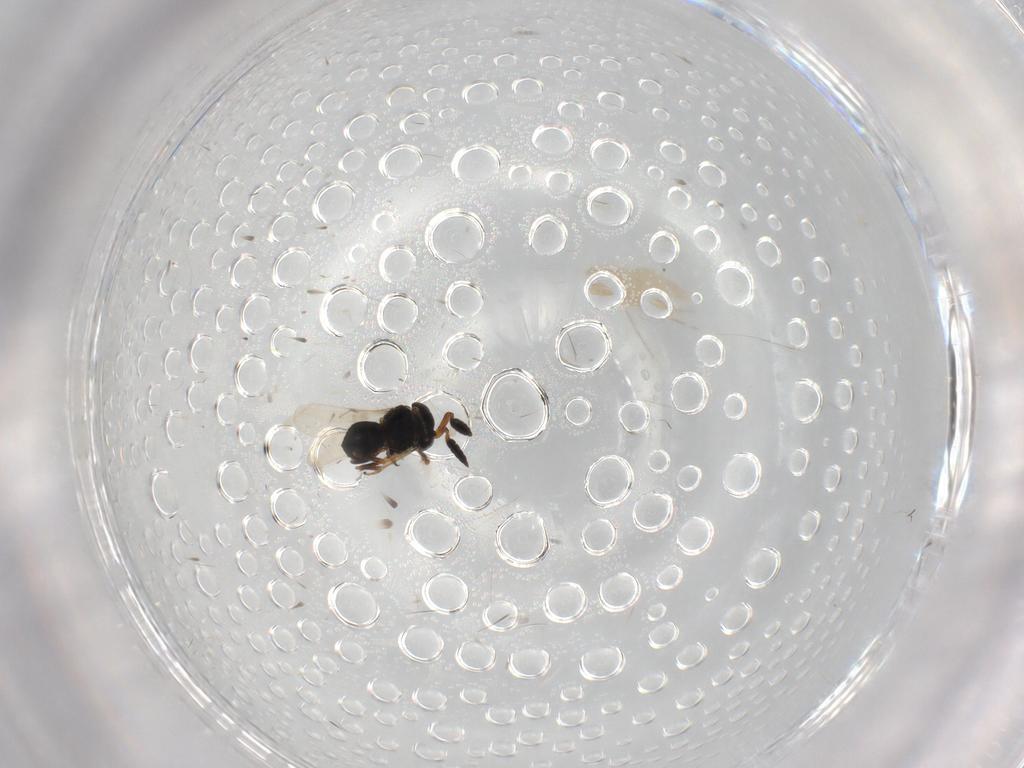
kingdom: Animalia
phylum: Arthropoda
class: Insecta
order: Hymenoptera
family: Scelionidae
